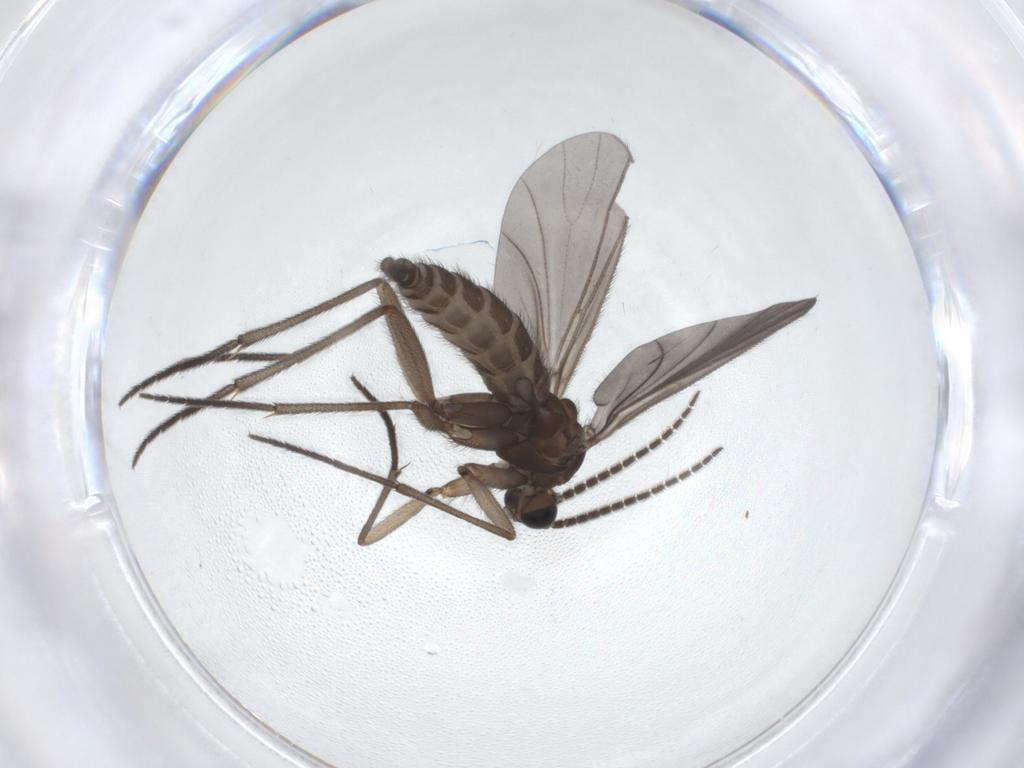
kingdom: Animalia
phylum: Arthropoda
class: Insecta
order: Diptera
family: Sciaridae
